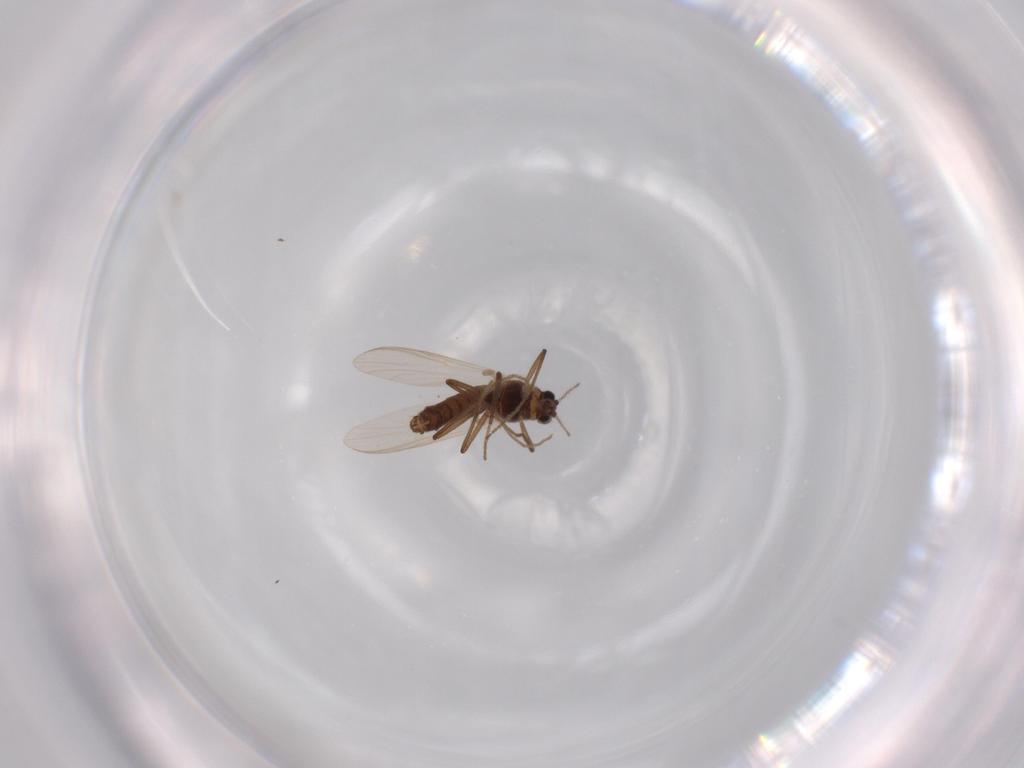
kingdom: Animalia
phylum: Arthropoda
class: Insecta
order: Diptera
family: Chironomidae
